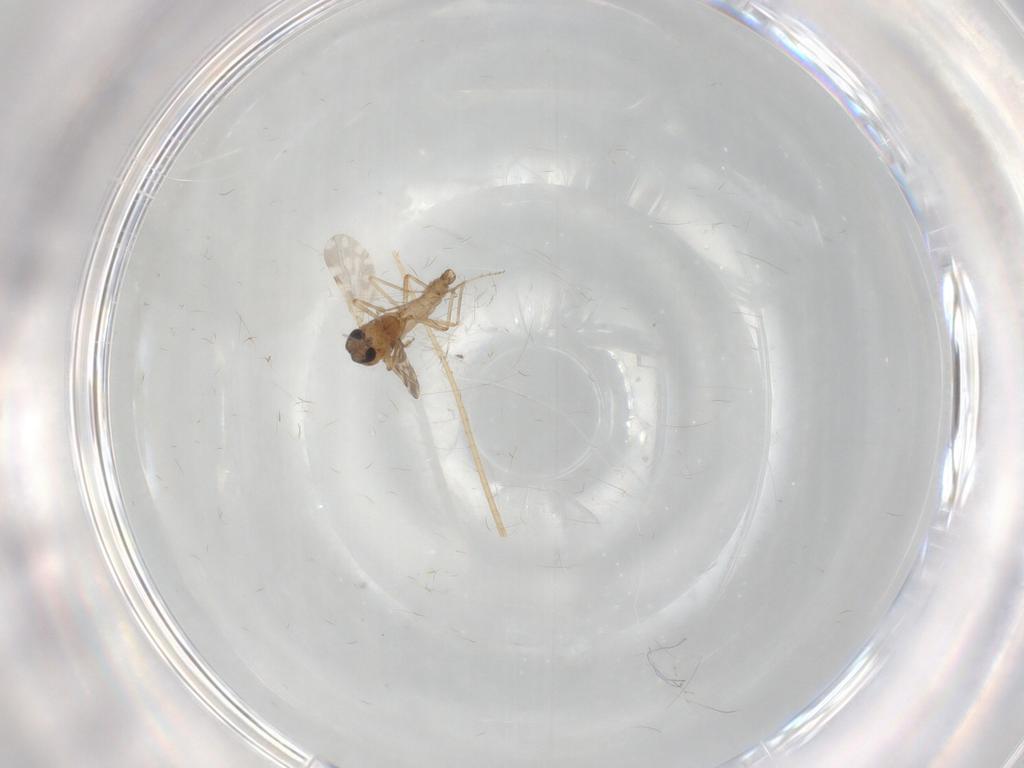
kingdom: Animalia
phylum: Arthropoda
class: Insecta
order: Diptera
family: Ceratopogonidae
